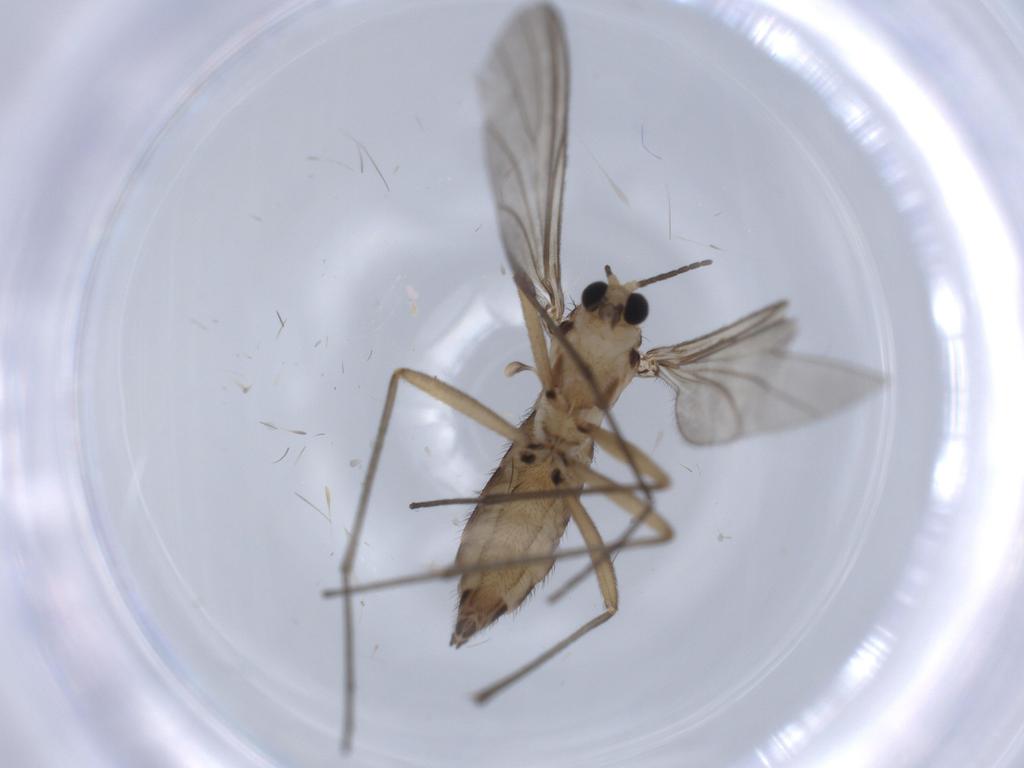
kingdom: Animalia
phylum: Arthropoda
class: Insecta
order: Diptera
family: Sciaridae
